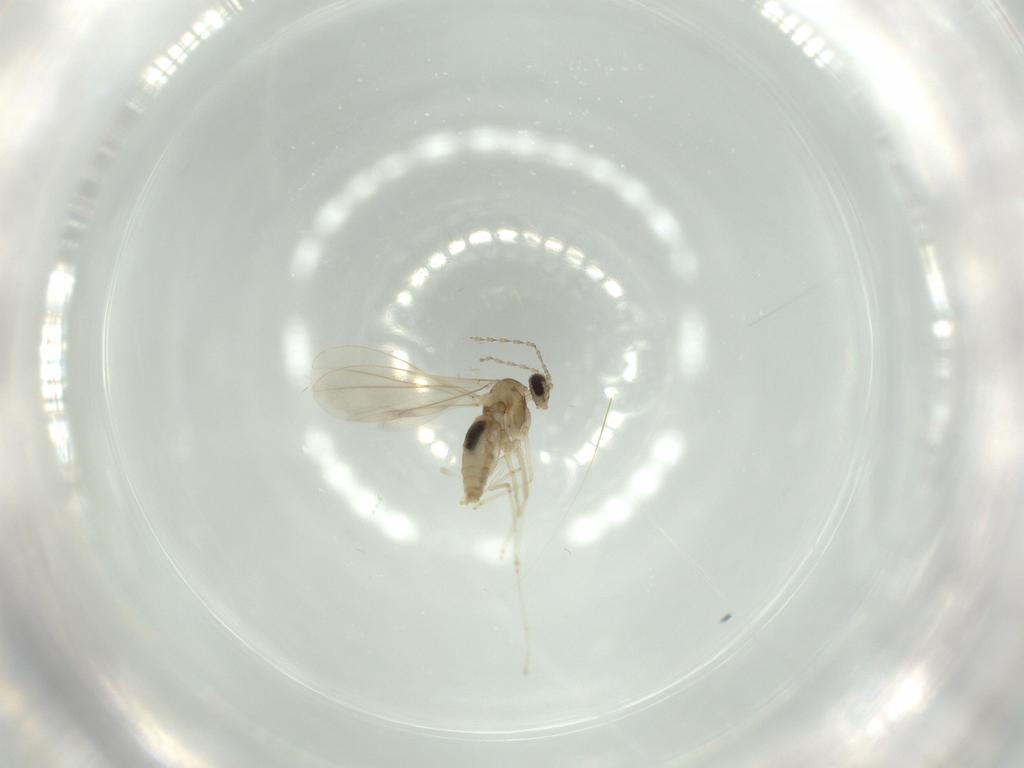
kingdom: Animalia
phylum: Arthropoda
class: Insecta
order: Diptera
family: Cecidomyiidae
